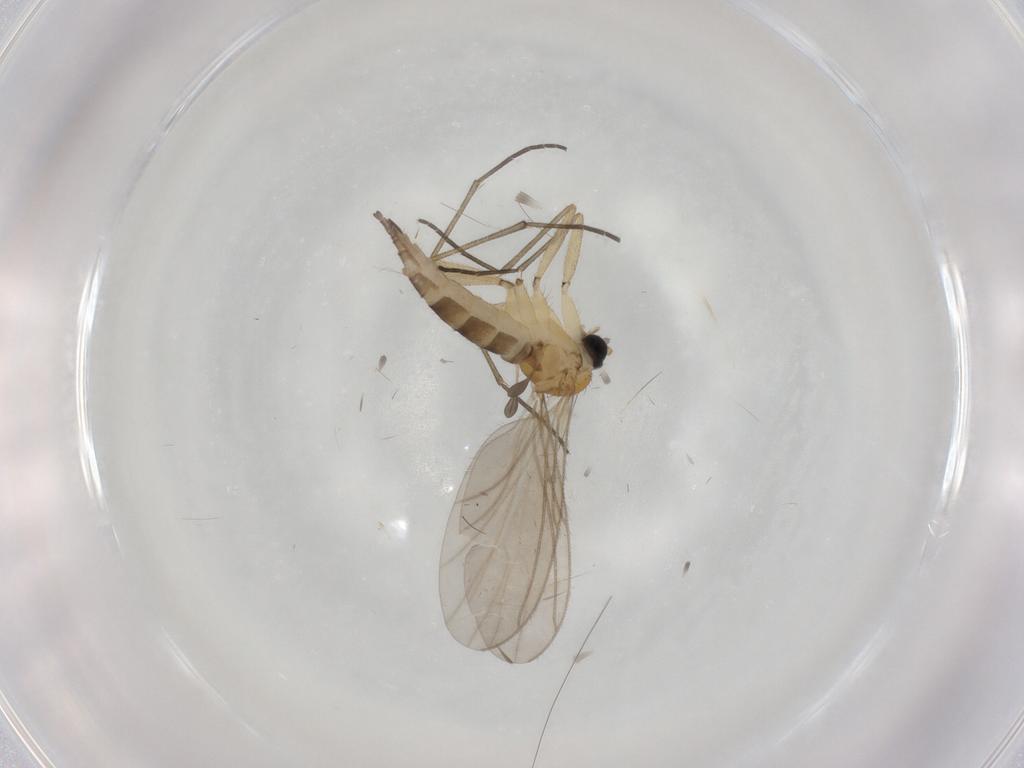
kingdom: Animalia
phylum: Arthropoda
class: Insecta
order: Diptera
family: Sciaridae
